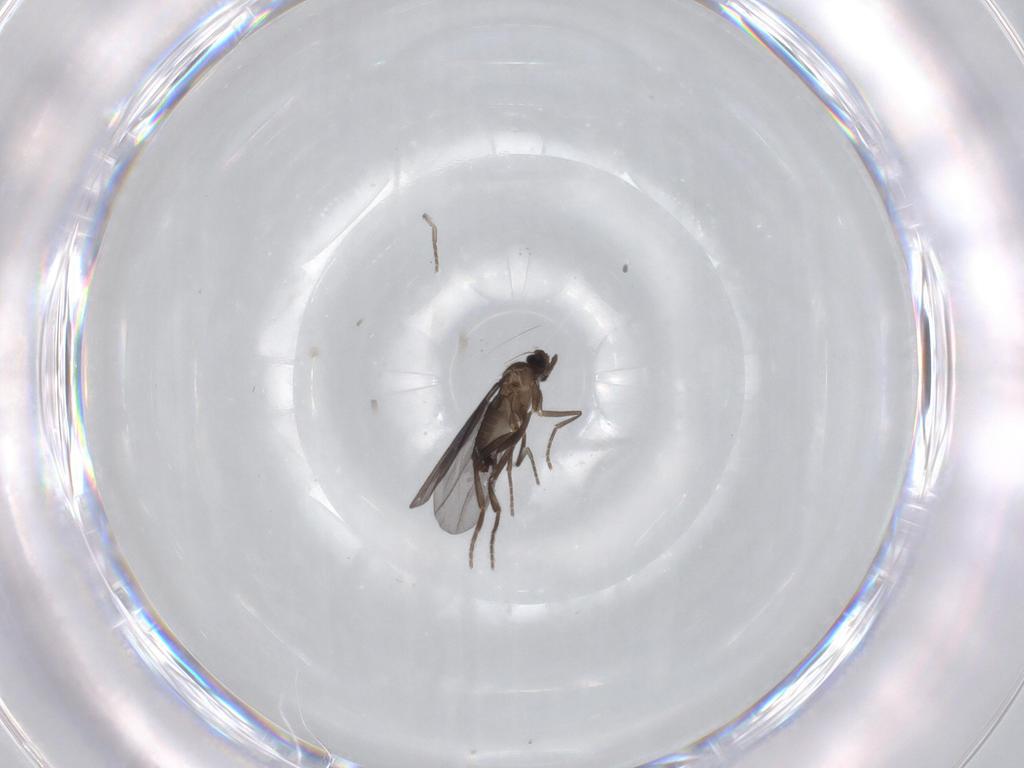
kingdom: Animalia
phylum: Arthropoda
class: Insecta
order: Diptera
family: Phoridae
